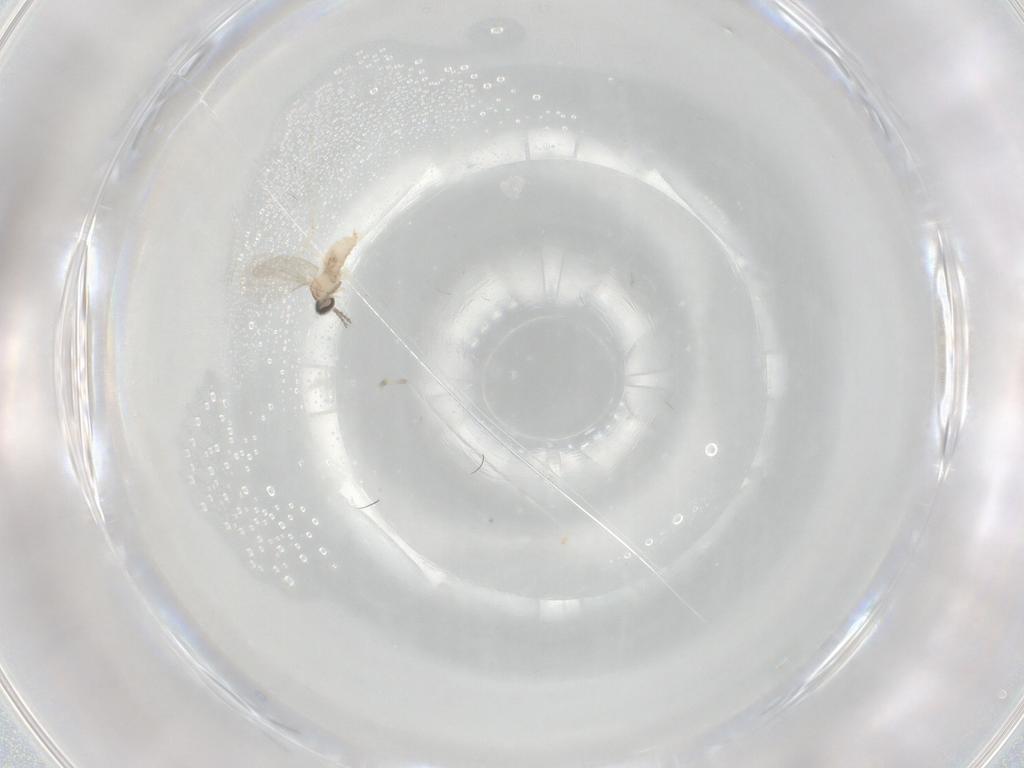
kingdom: Animalia
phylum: Arthropoda
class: Insecta
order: Diptera
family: Cecidomyiidae
